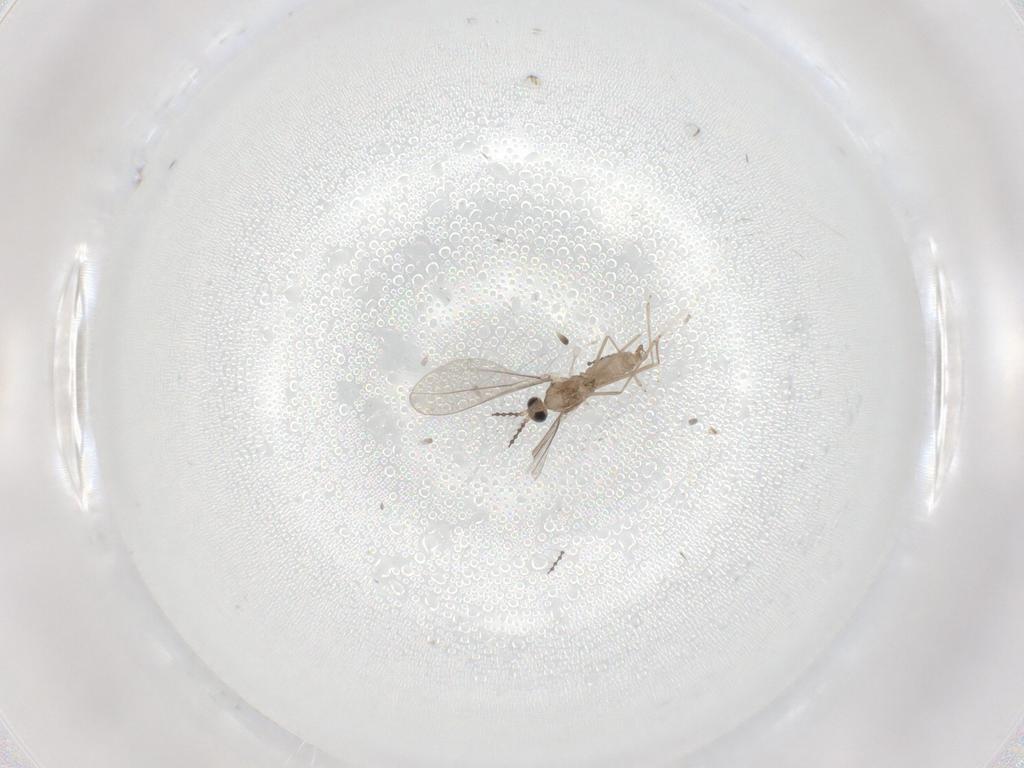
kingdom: Animalia
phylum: Arthropoda
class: Insecta
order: Diptera
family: Cecidomyiidae
